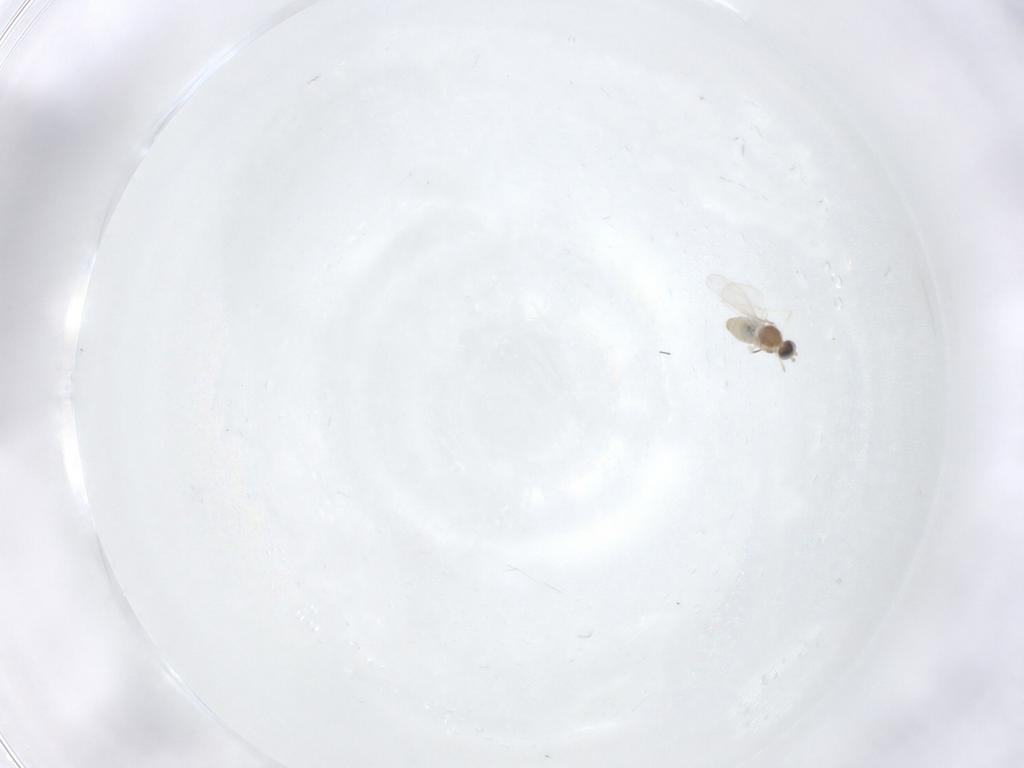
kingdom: Animalia
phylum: Arthropoda
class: Insecta
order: Diptera
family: Cecidomyiidae
